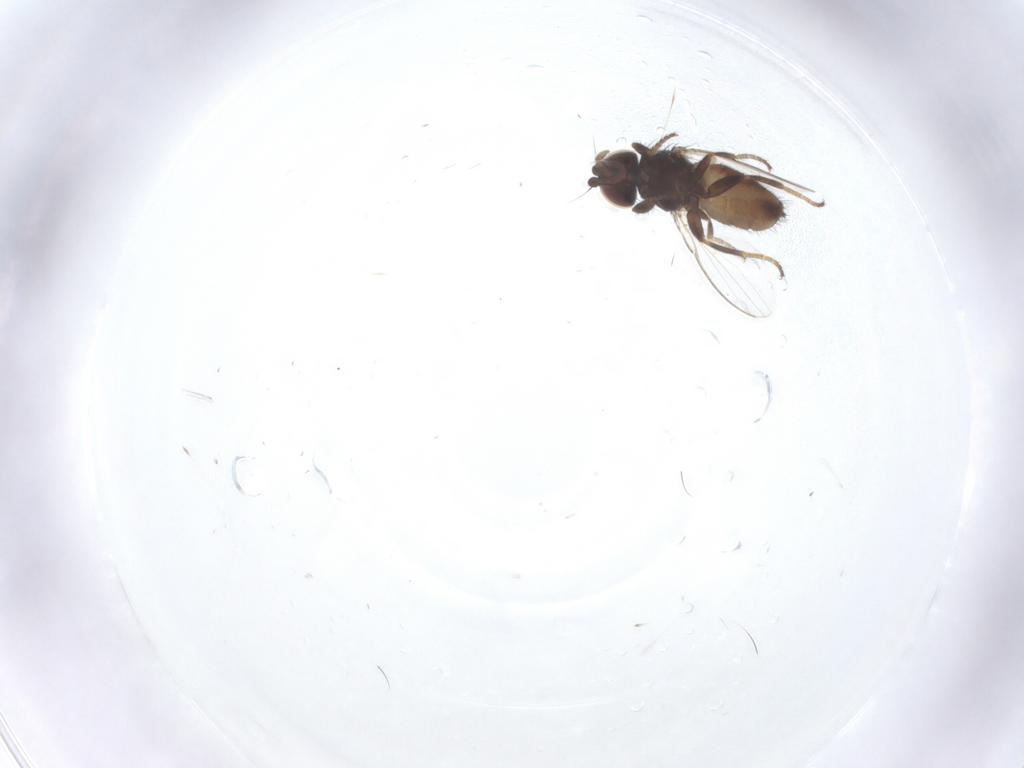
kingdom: Animalia
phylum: Arthropoda
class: Insecta
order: Diptera
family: Milichiidae
